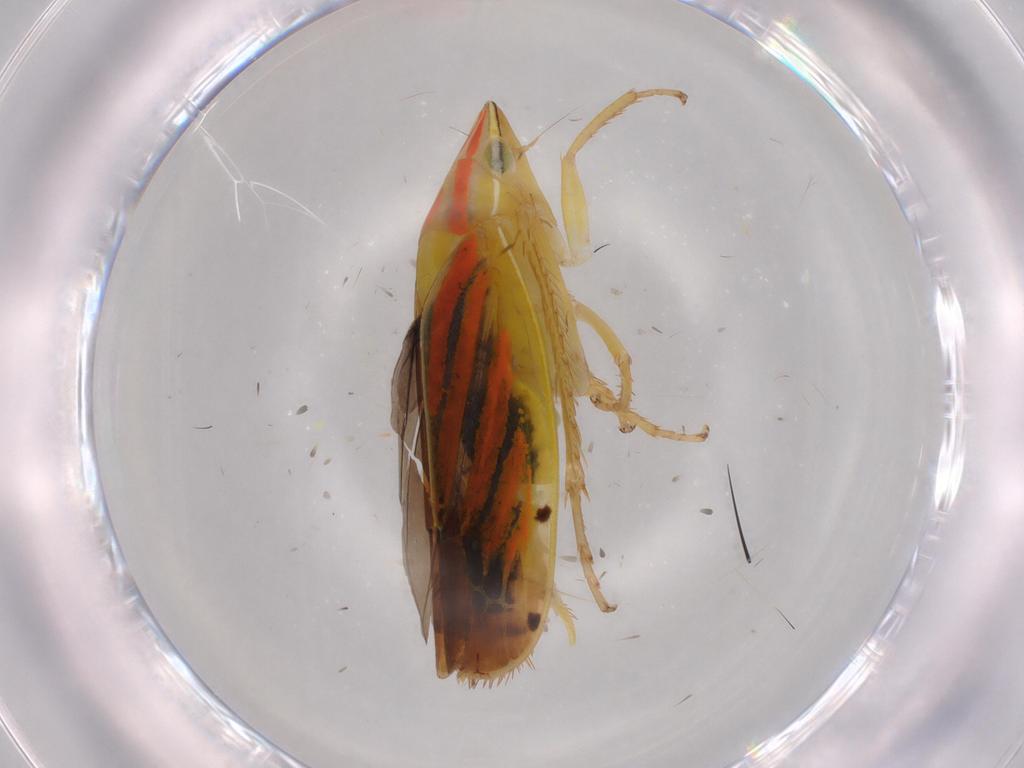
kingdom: Animalia
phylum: Arthropoda
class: Insecta
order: Hemiptera
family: Cicadellidae
